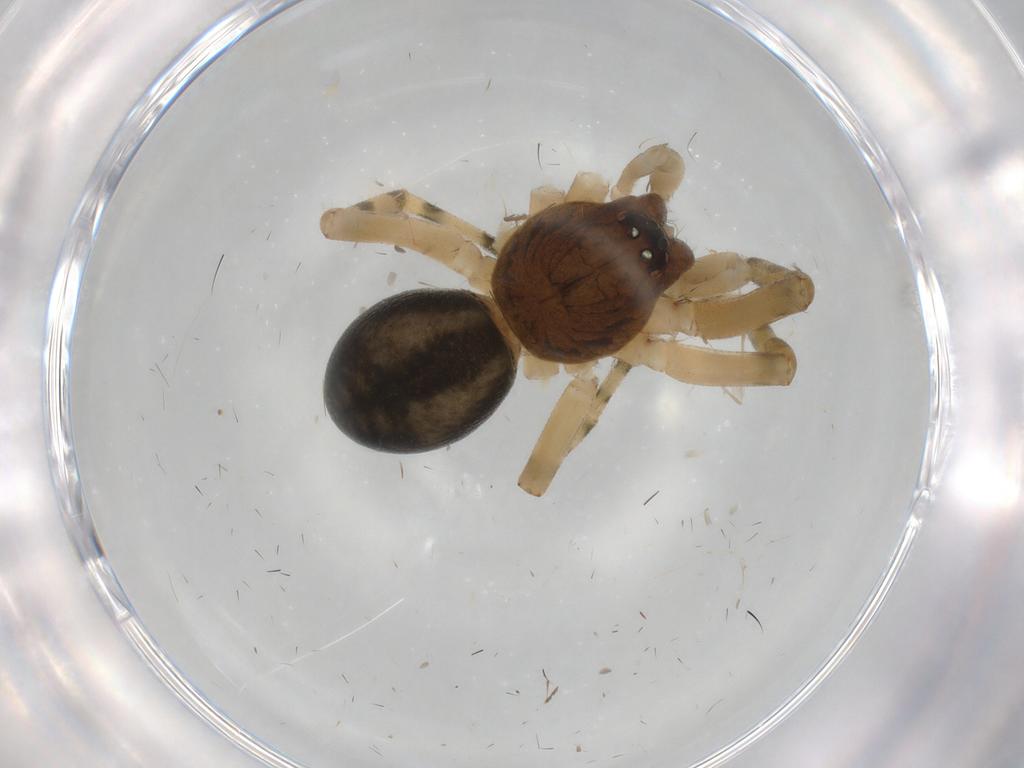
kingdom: Animalia
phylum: Arthropoda
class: Arachnida
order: Araneae
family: Trachelidae
